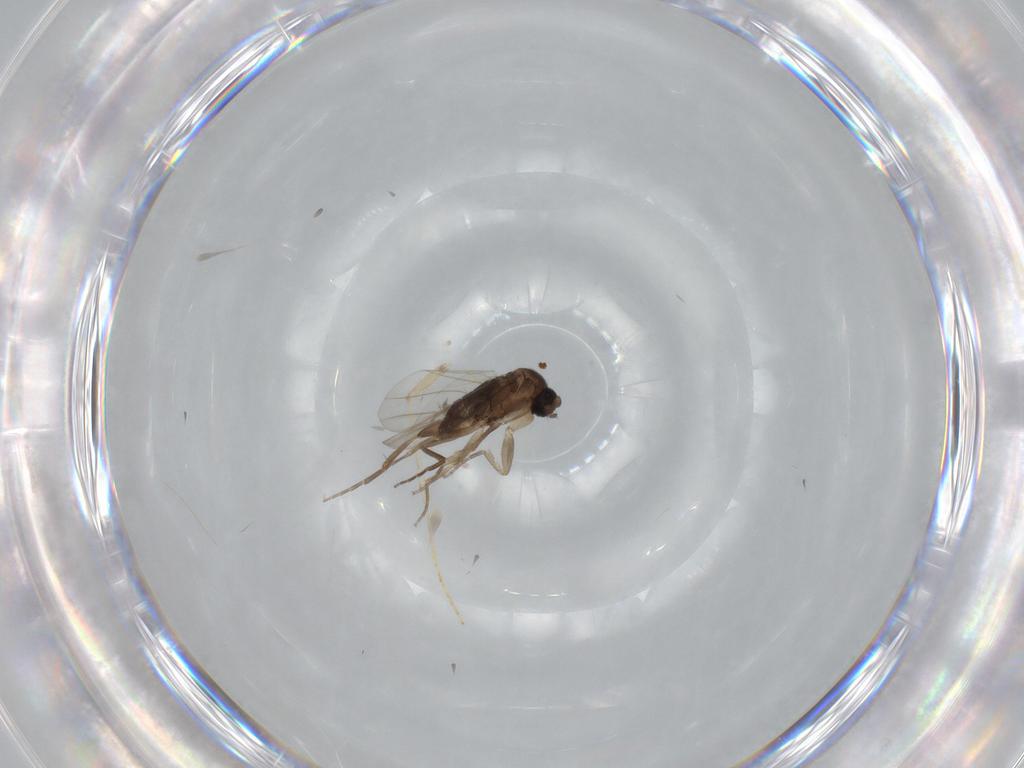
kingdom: Animalia
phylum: Arthropoda
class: Insecta
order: Diptera
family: Phoridae
